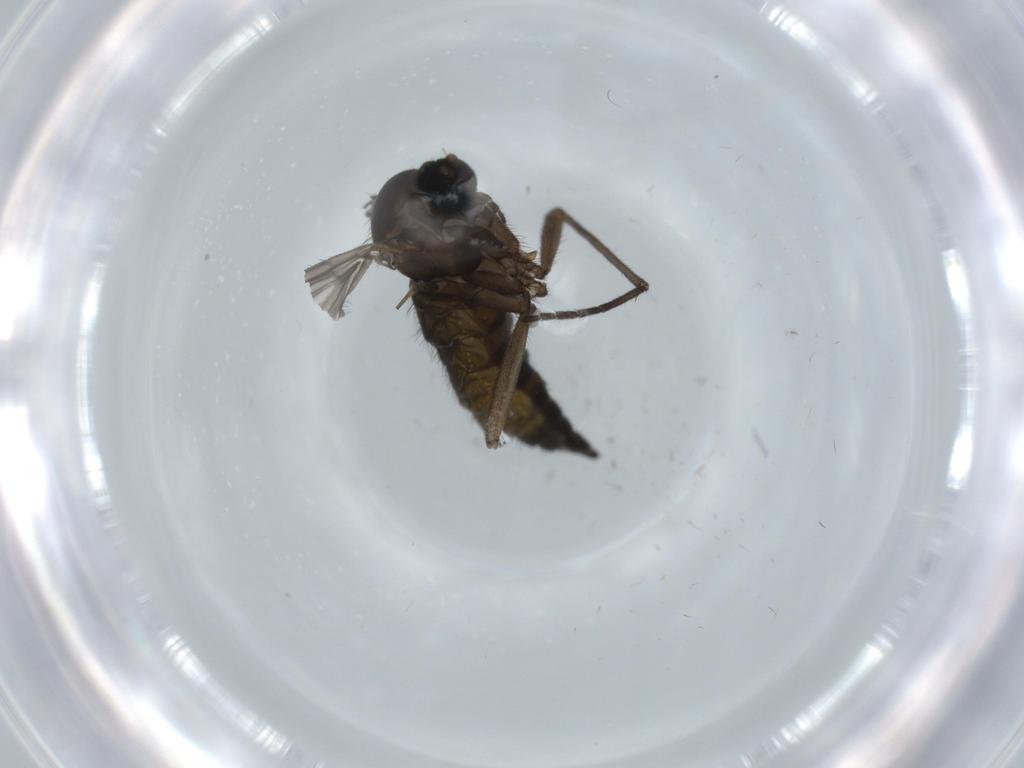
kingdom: Animalia
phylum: Arthropoda
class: Insecta
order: Diptera
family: Sciaridae
